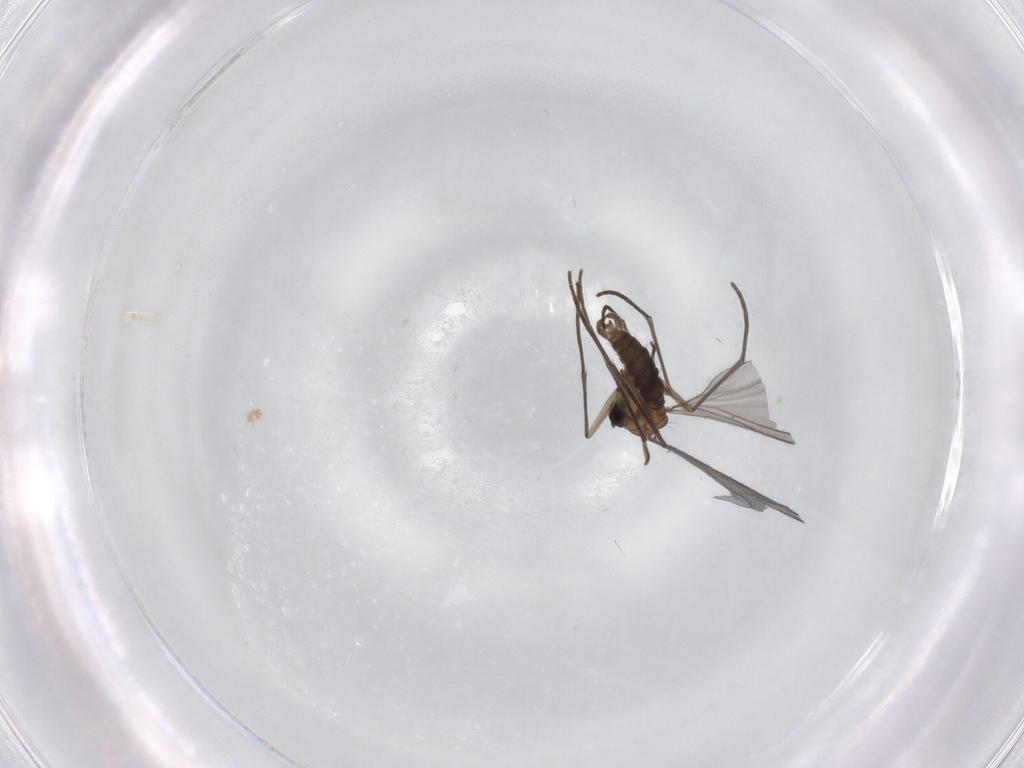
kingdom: Animalia
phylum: Arthropoda
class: Insecta
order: Diptera
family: Sciaridae
